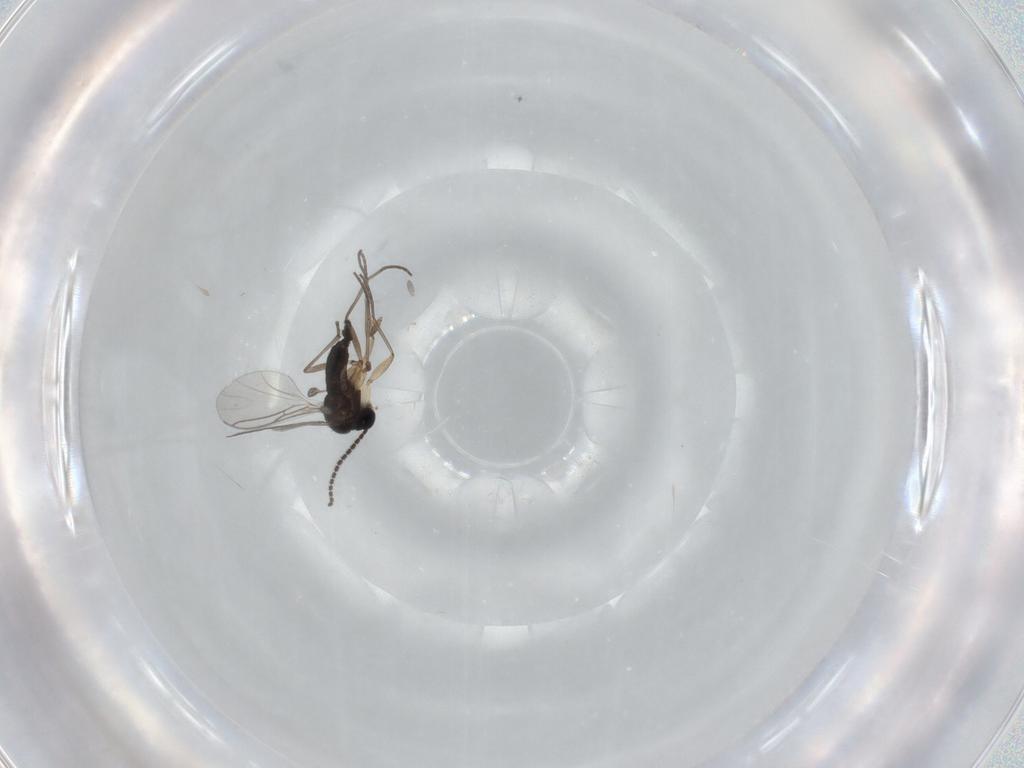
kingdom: Animalia
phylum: Arthropoda
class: Insecta
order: Diptera
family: Sciaridae
